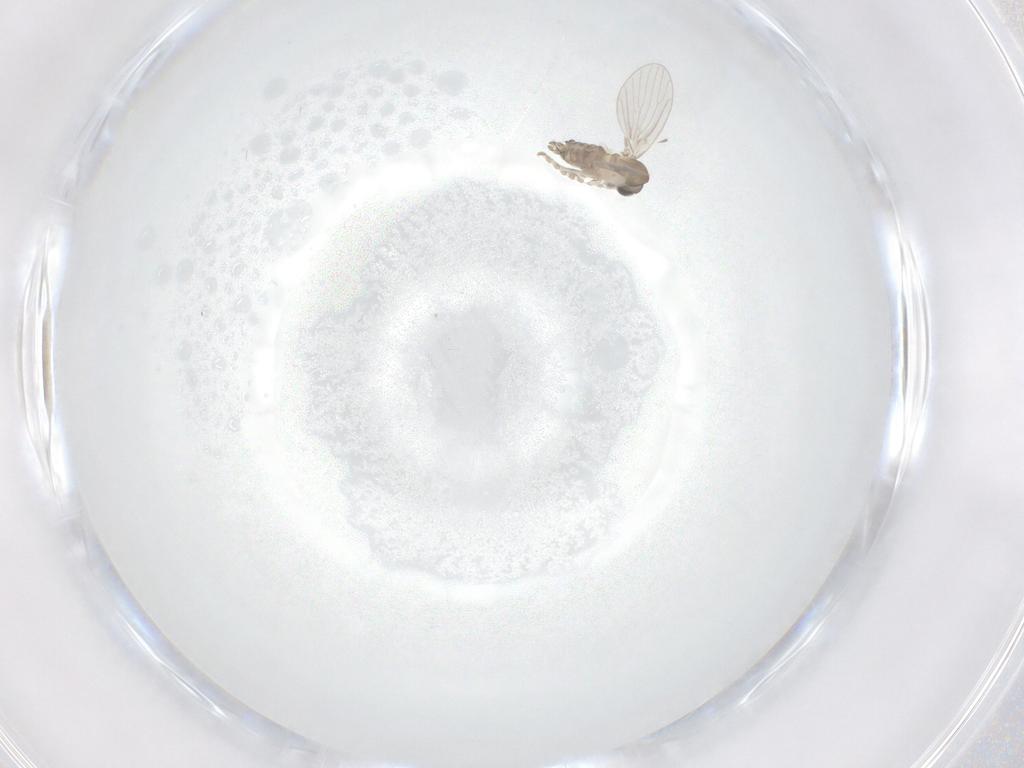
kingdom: Animalia
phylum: Arthropoda
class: Insecta
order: Diptera
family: Psychodidae
